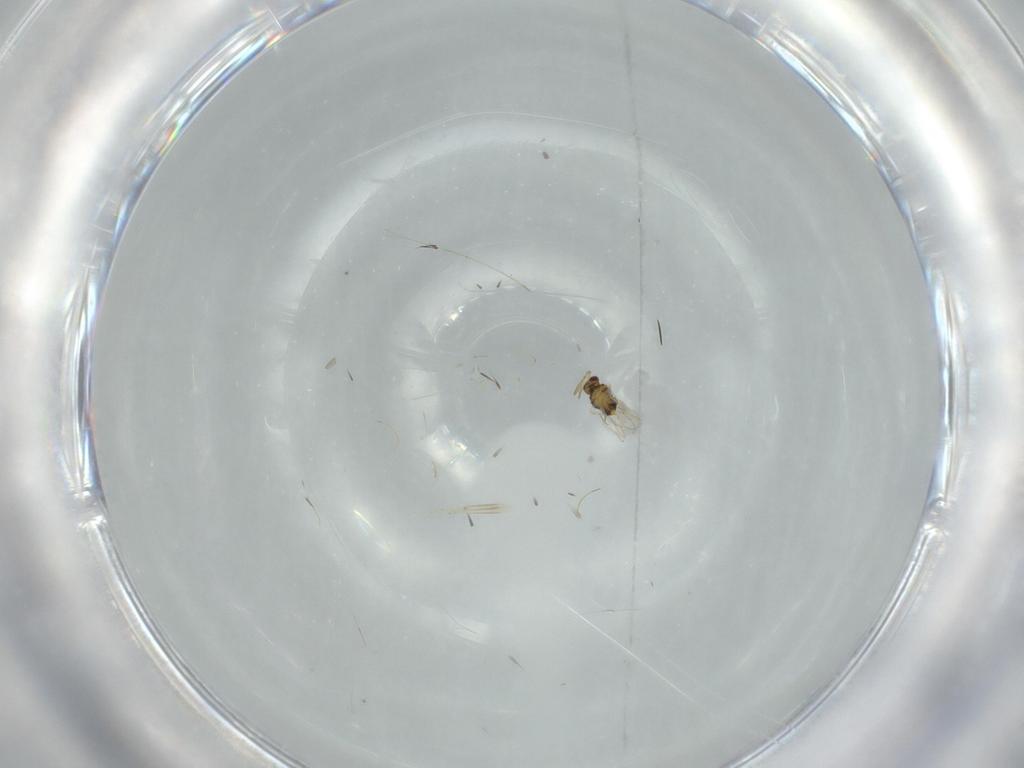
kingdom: Animalia
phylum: Arthropoda
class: Insecta
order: Hymenoptera
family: Aphelinidae
